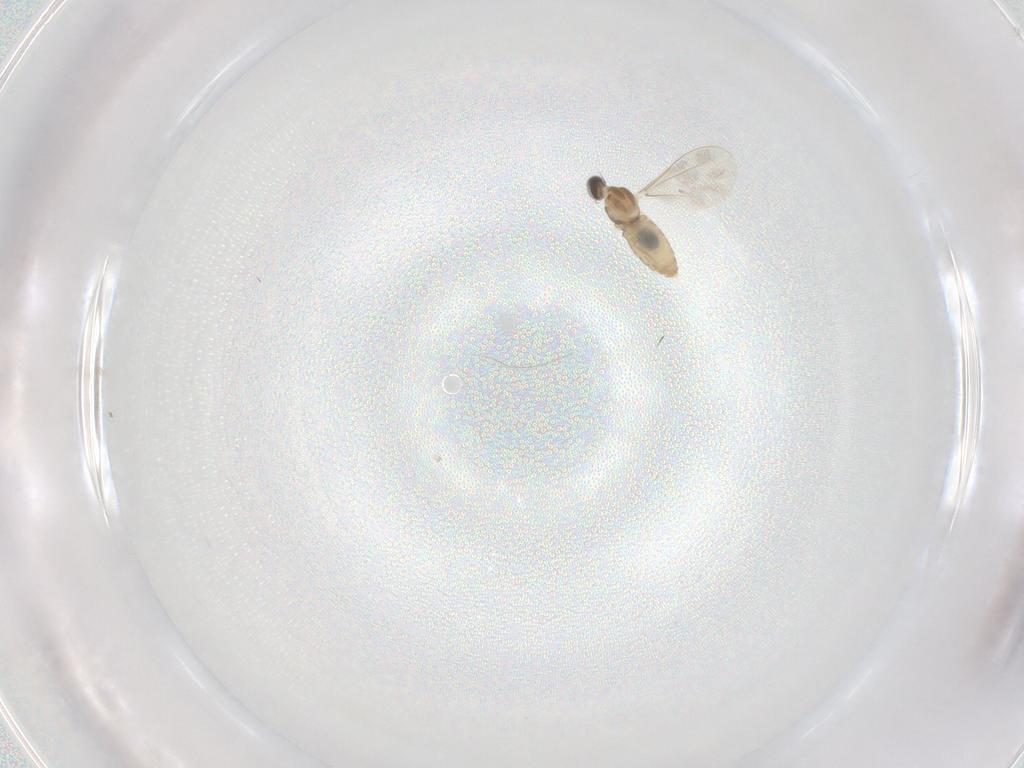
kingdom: Animalia
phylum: Arthropoda
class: Insecta
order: Diptera
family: Cecidomyiidae
